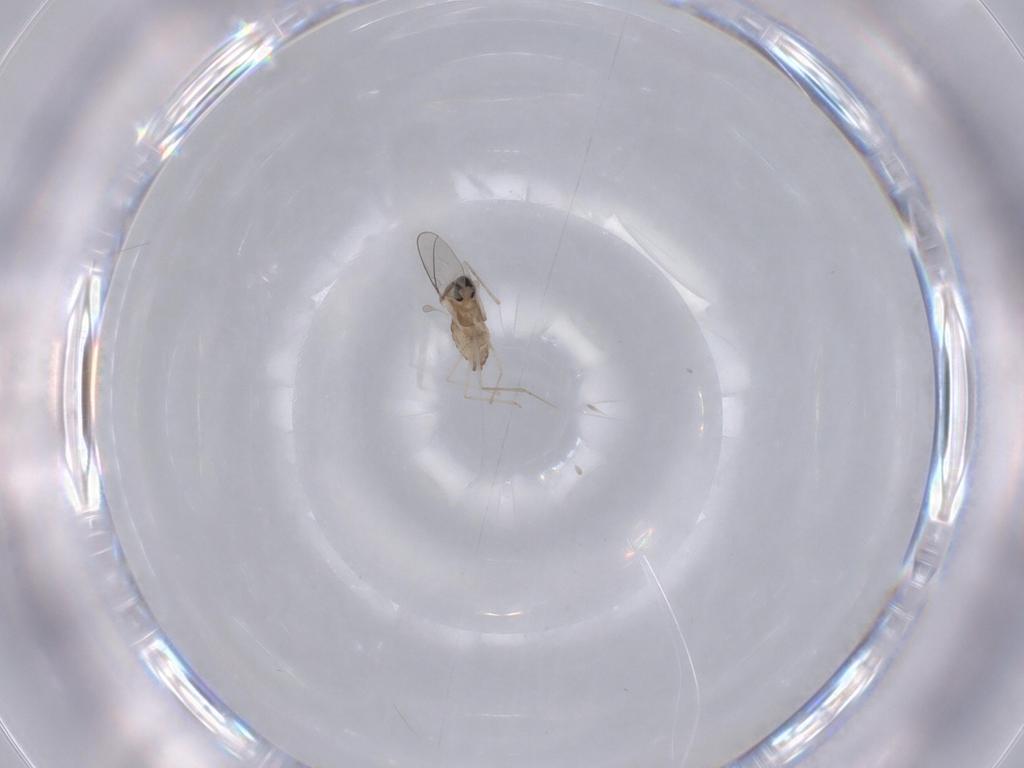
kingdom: Animalia
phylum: Arthropoda
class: Insecta
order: Diptera
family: Cecidomyiidae
